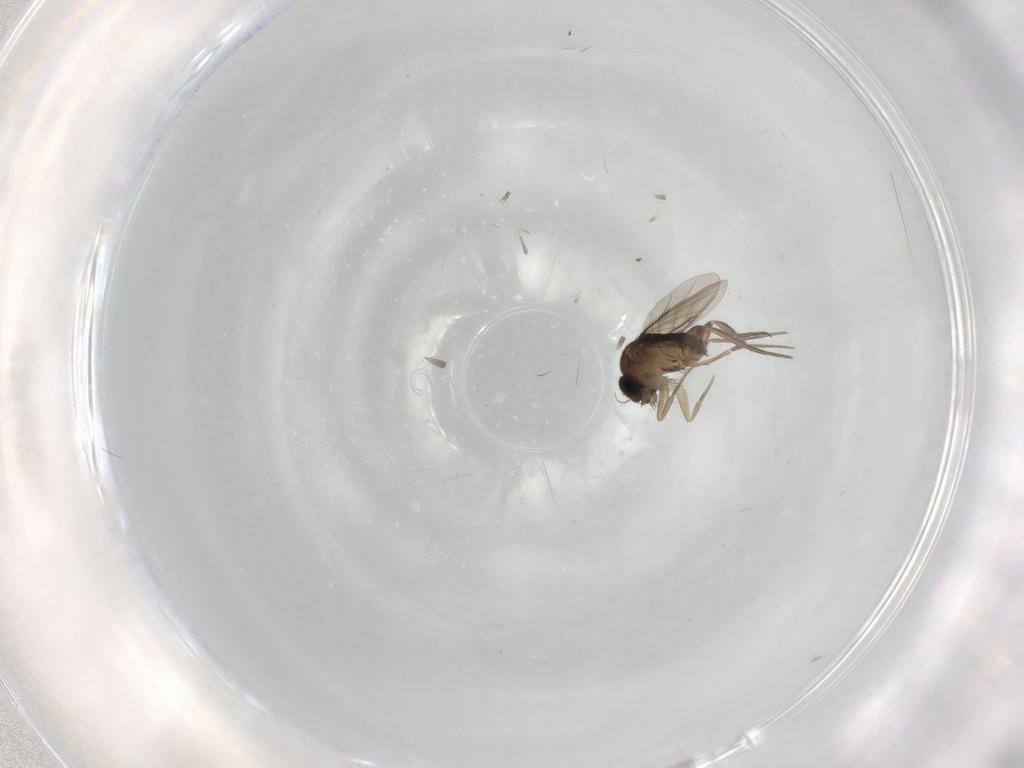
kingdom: Animalia
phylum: Arthropoda
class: Insecta
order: Diptera
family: Phoridae
